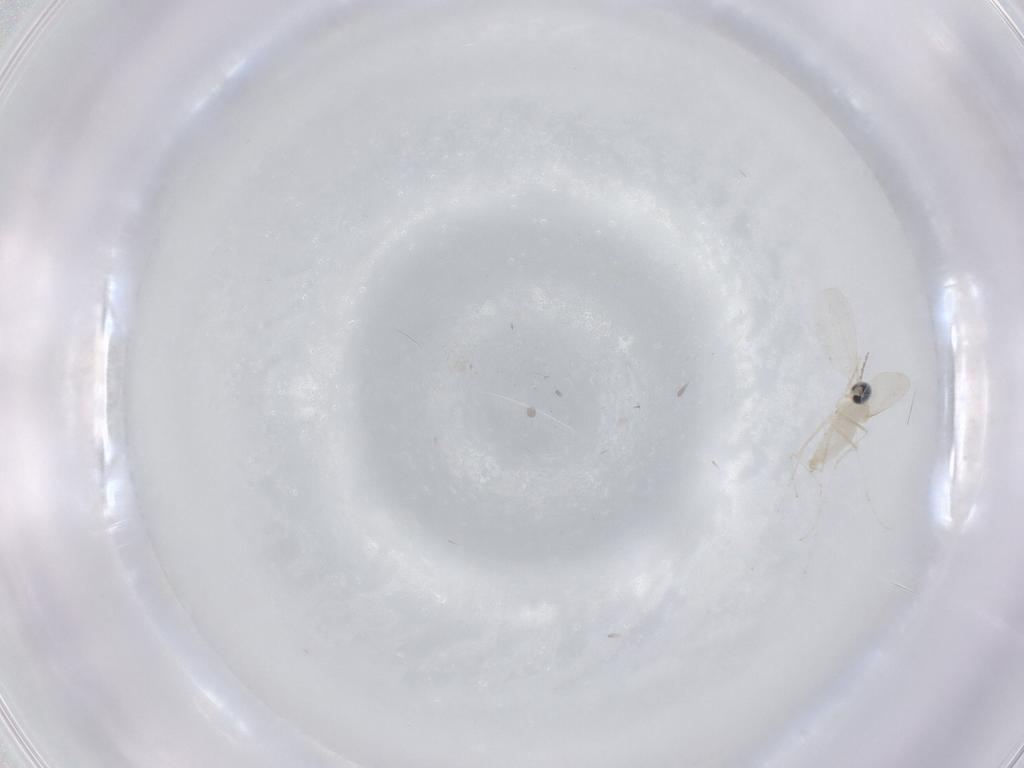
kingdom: Animalia
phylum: Arthropoda
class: Insecta
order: Diptera
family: Cecidomyiidae
